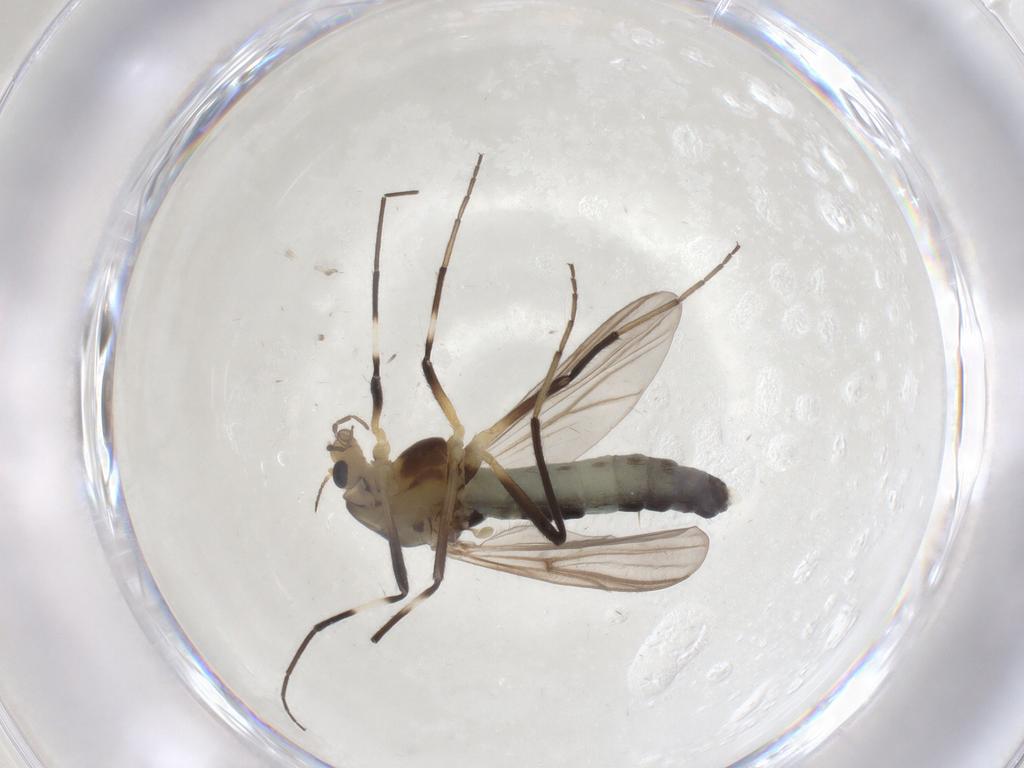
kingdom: Animalia
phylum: Arthropoda
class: Insecta
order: Diptera
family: Chironomidae
